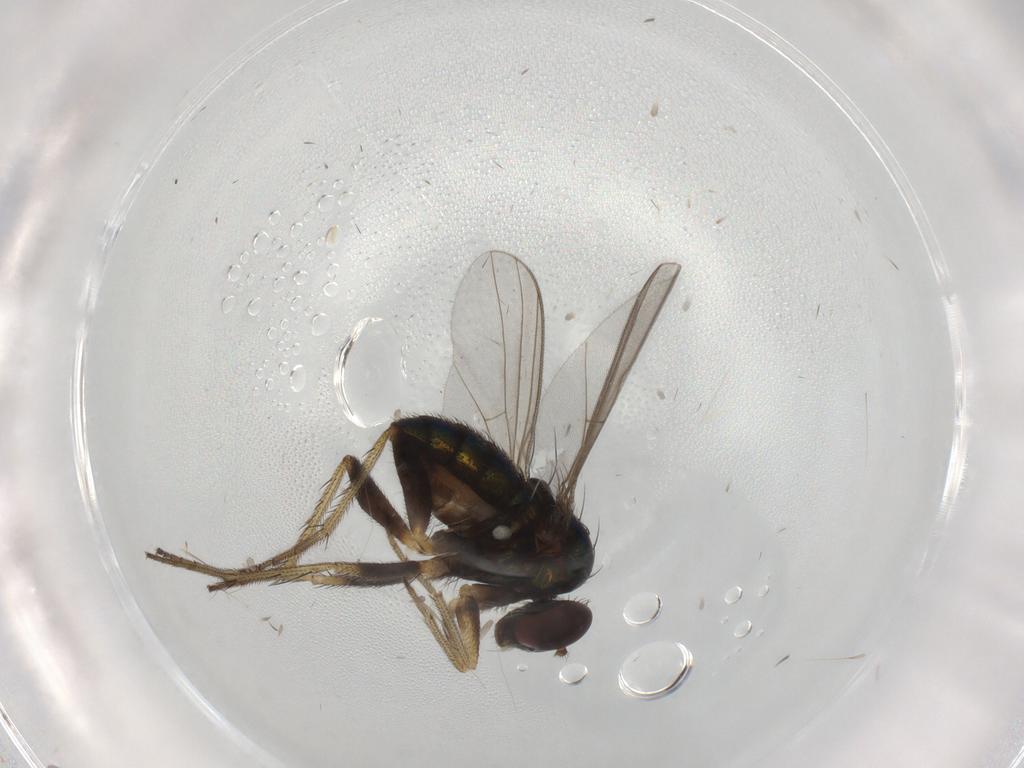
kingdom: Animalia
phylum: Arthropoda
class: Insecta
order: Diptera
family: Dolichopodidae
